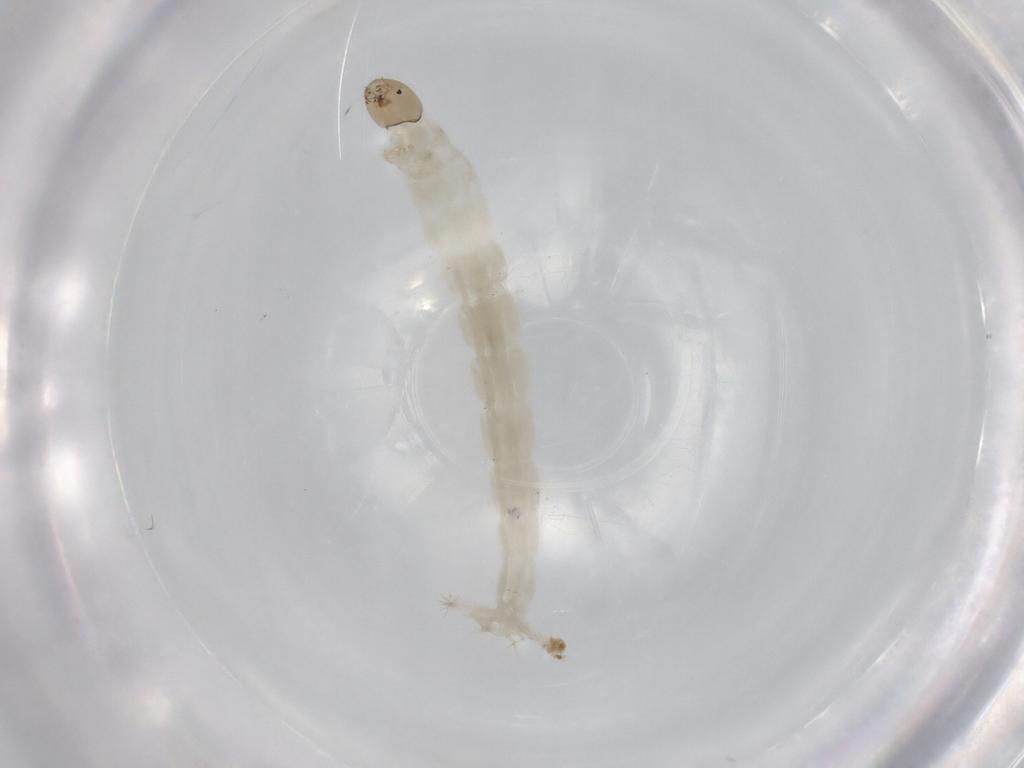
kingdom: Animalia
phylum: Arthropoda
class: Insecta
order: Diptera
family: Chironomidae
